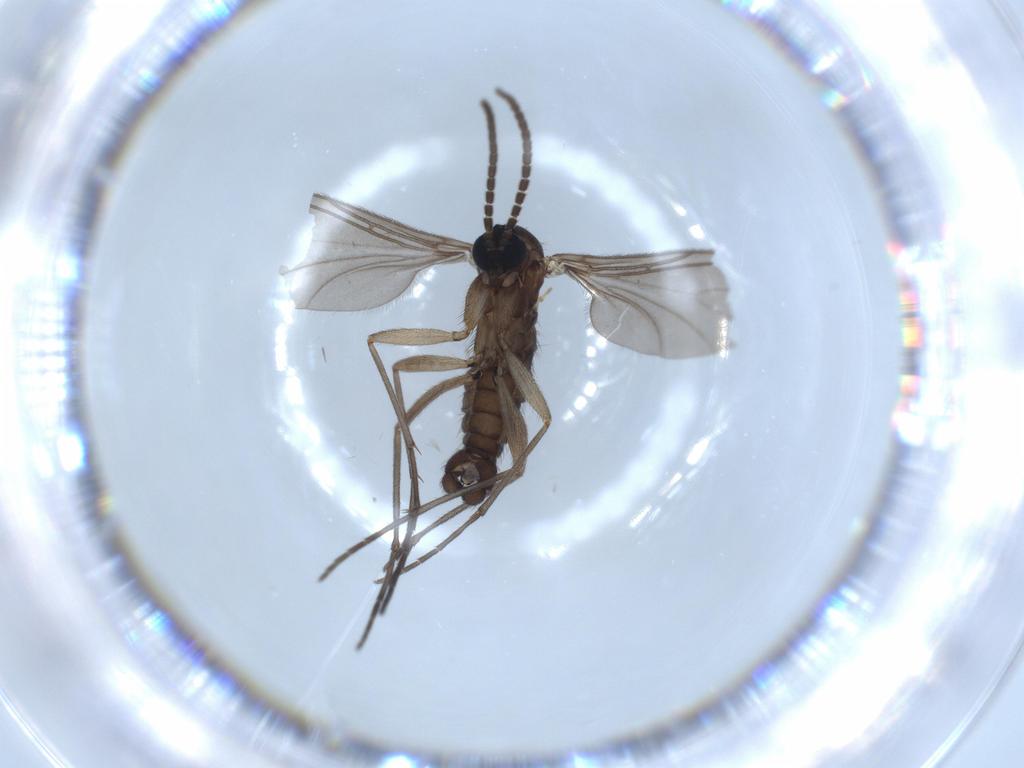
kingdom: Animalia
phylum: Arthropoda
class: Insecta
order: Diptera
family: Sciaridae
